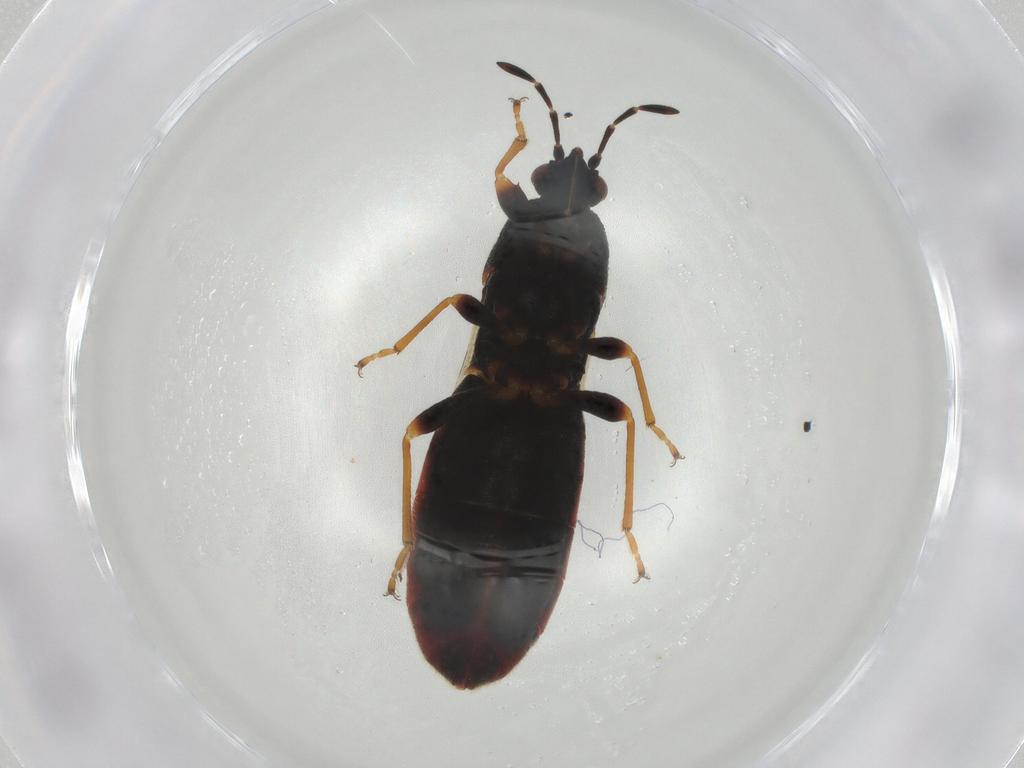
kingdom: Animalia
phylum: Arthropoda
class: Insecta
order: Hemiptera
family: Blissidae
